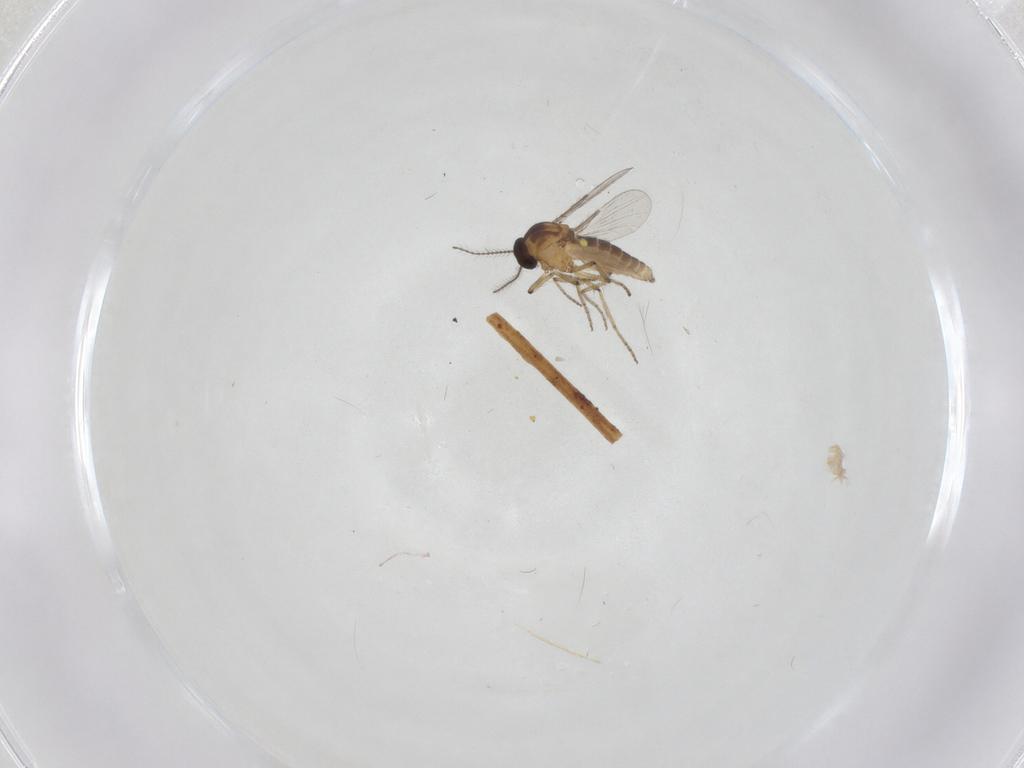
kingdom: Animalia
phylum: Arthropoda
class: Insecta
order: Diptera
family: Ceratopogonidae
